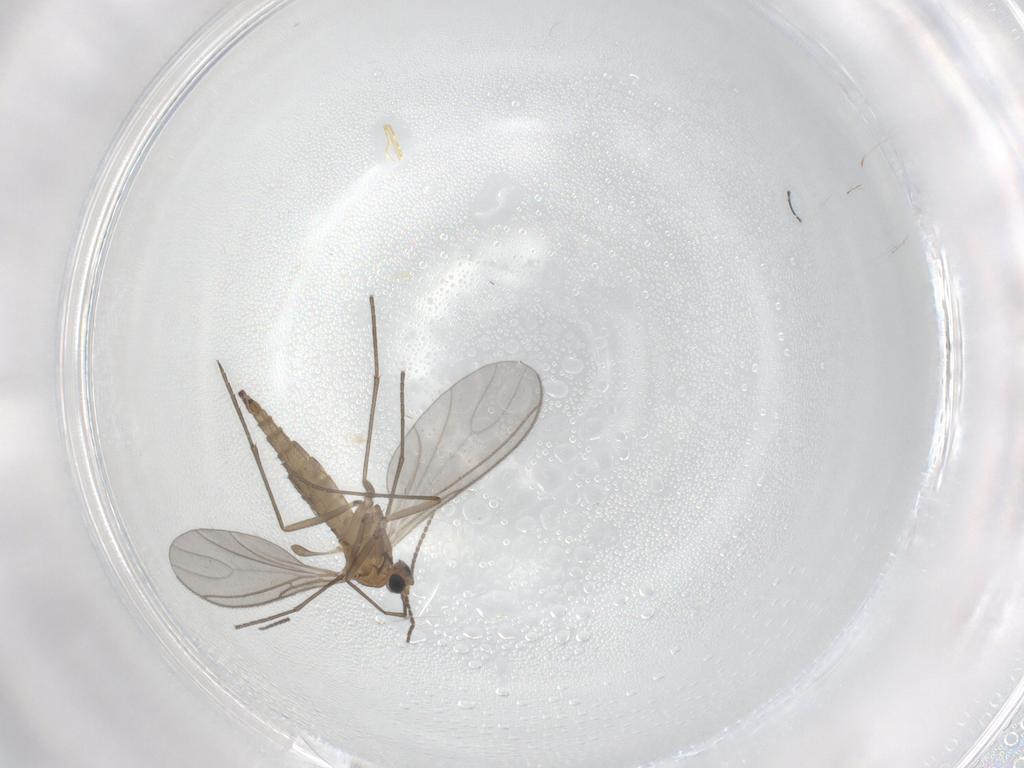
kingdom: Animalia
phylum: Arthropoda
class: Insecta
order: Diptera
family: Sciaridae
